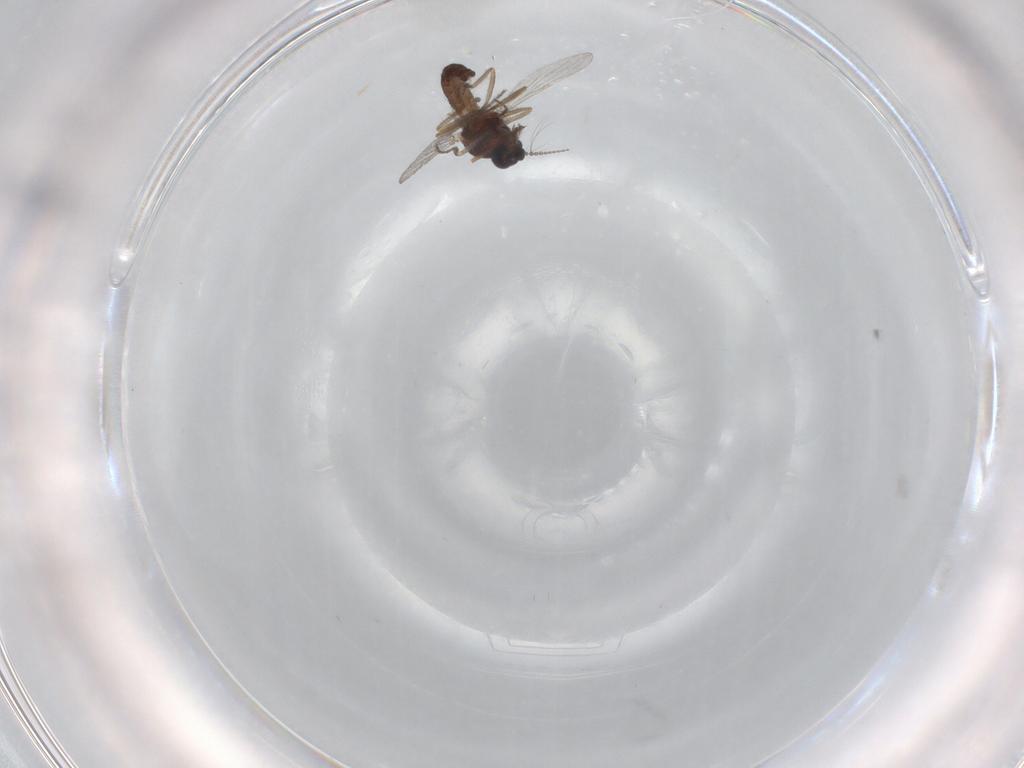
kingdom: Animalia
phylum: Arthropoda
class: Insecta
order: Diptera
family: Ceratopogonidae
